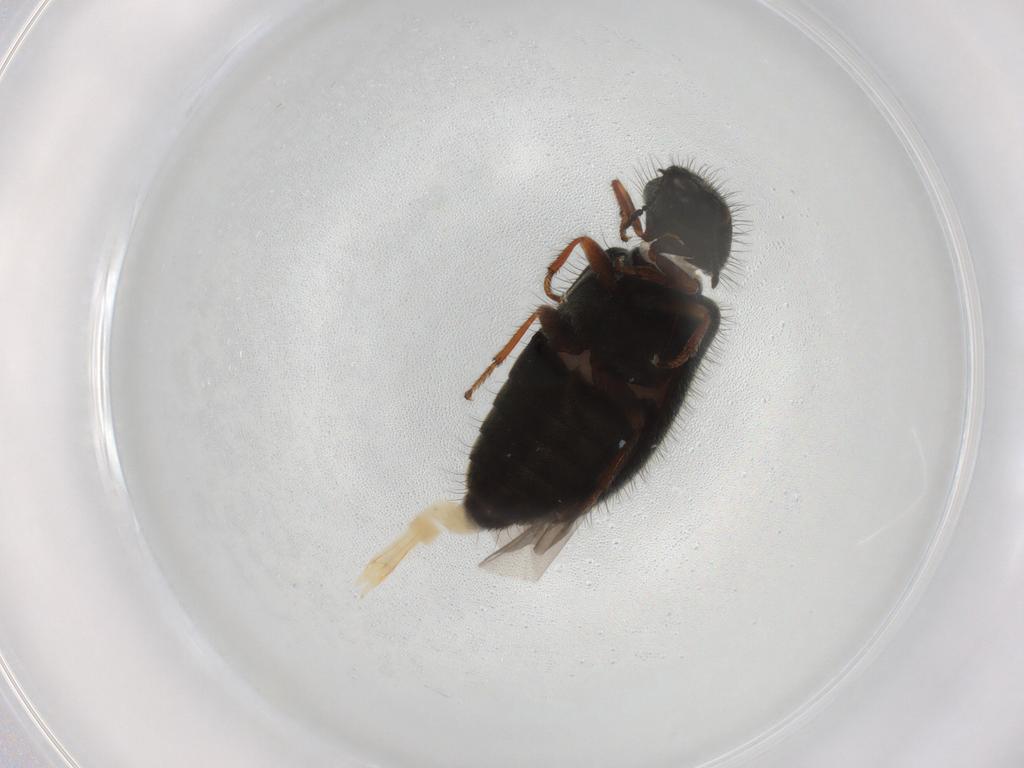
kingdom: Animalia
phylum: Arthropoda
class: Insecta
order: Coleoptera
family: Melyridae
